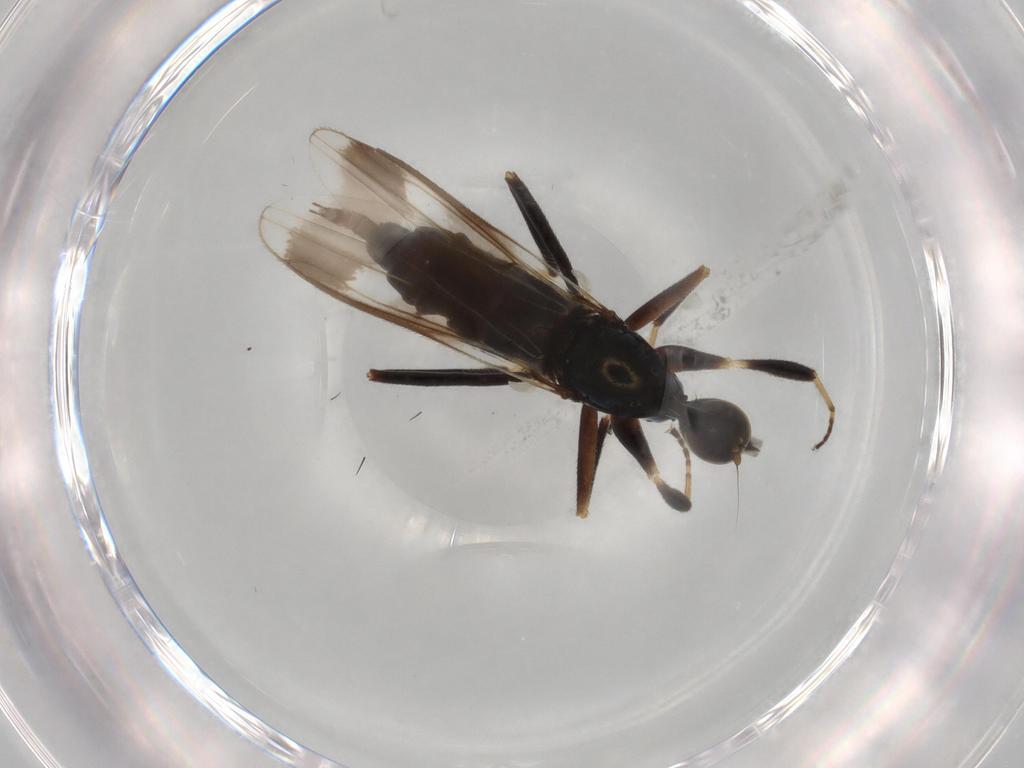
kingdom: Animalia
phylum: Arthropoda
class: Insecta
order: Diptera
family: Hybotidae
